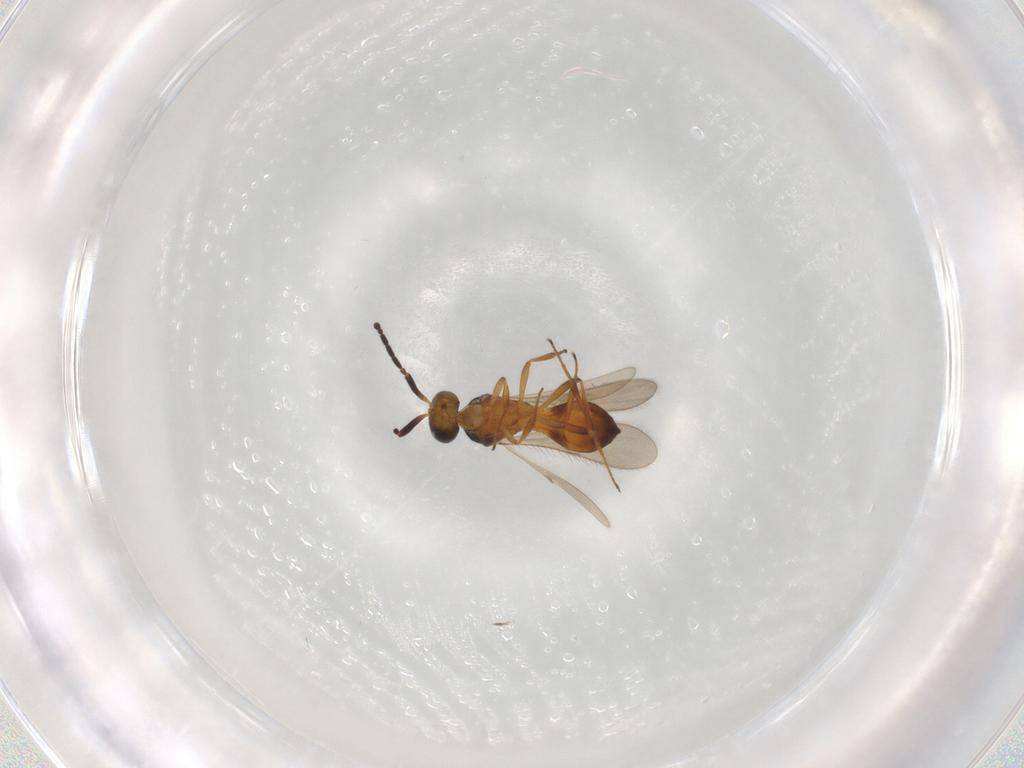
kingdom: Animalia
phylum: Arthropoda
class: Insecta
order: Hymenoptera
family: Scelionidae
